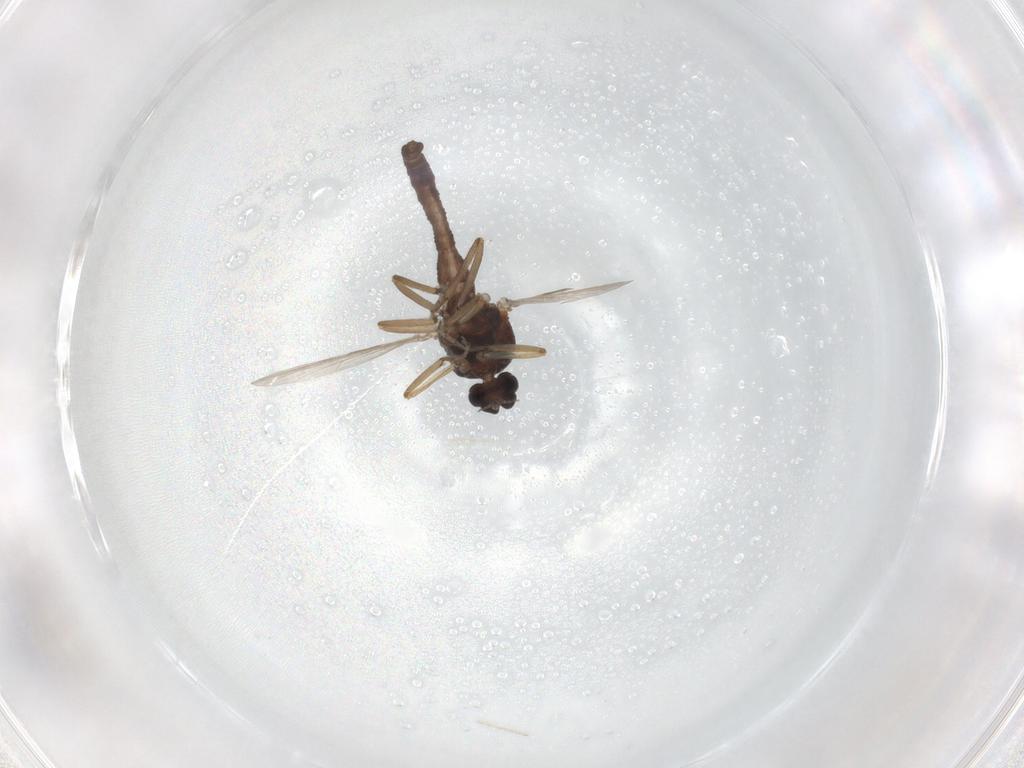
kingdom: Animalia
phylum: Arthropoda
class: Insecta
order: Diptera
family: Ceratopogonidae
